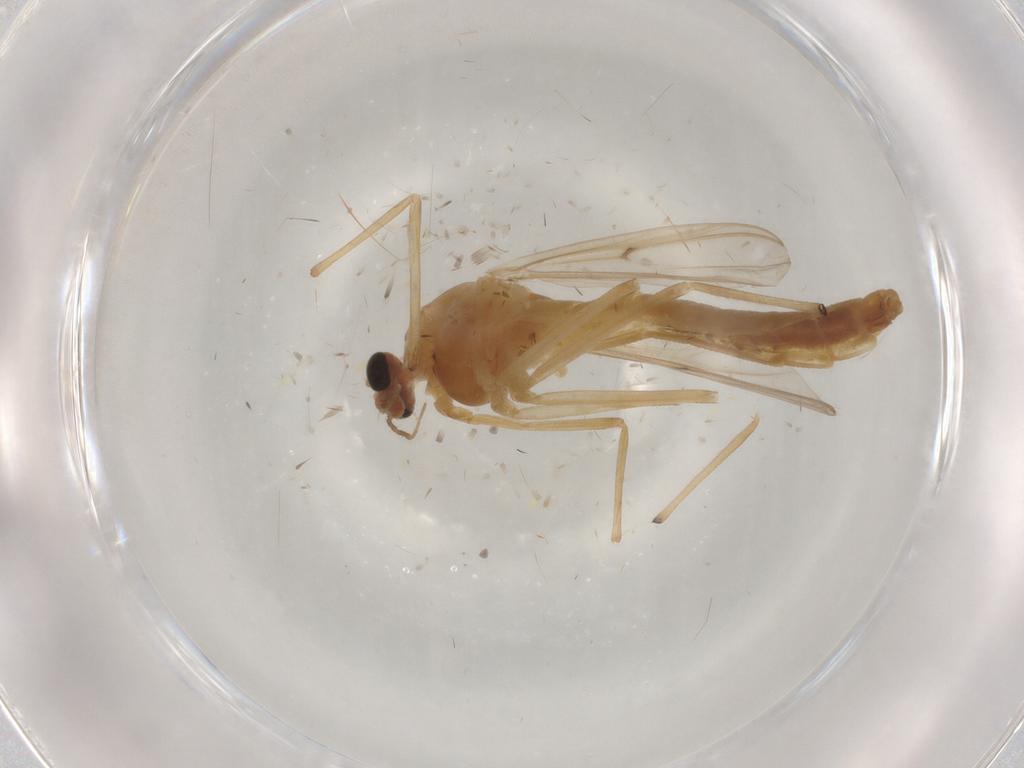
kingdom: Animalia
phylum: Arthropoda
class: Insecta
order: Diptera
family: Chironomidae
